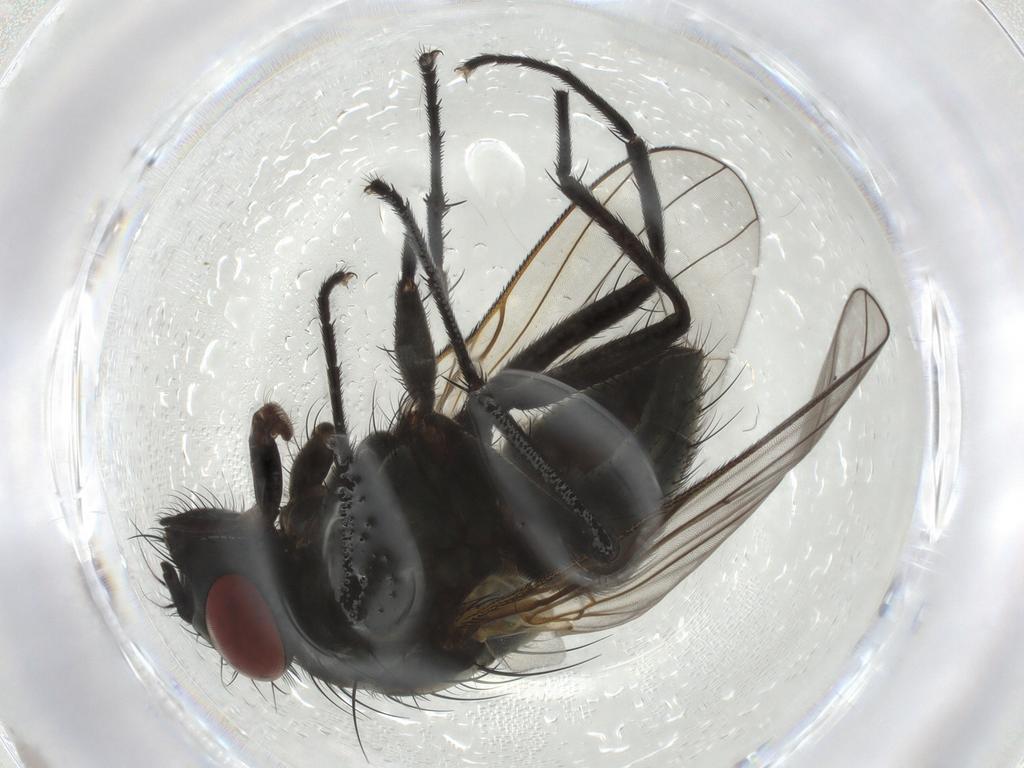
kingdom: Animalia
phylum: Arthropoda
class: Insecta
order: Diptera
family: Muscidae
